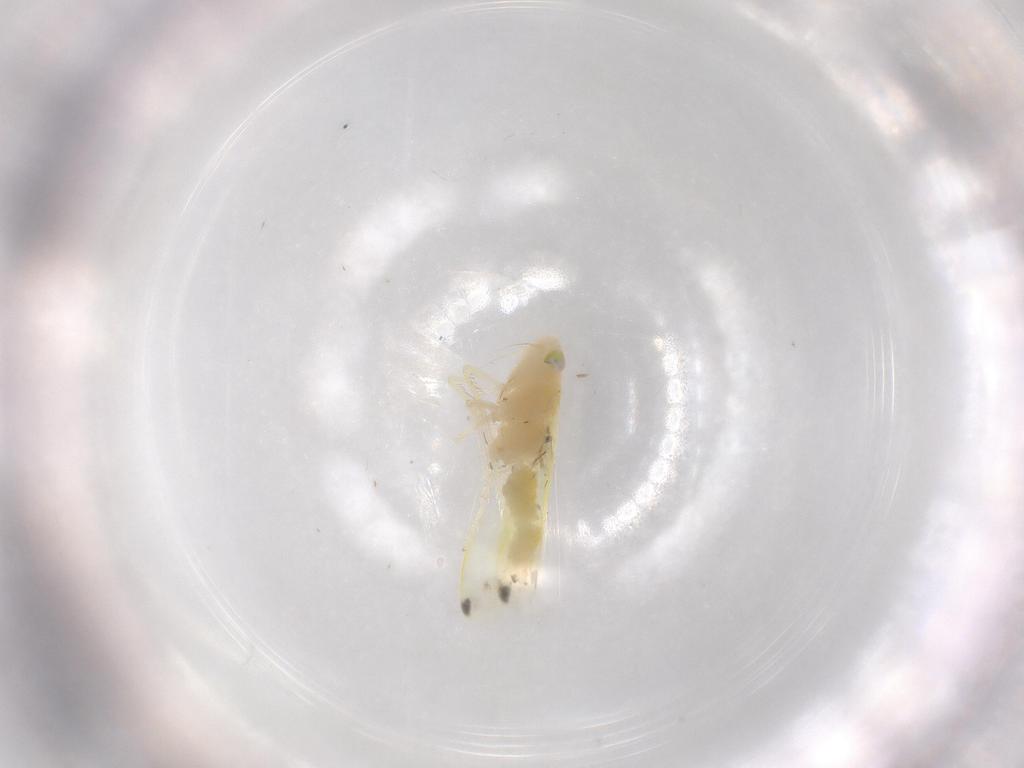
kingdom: Animalia
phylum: Arthropoda
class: Insecta
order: Hemiptera
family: Cicadellidae
